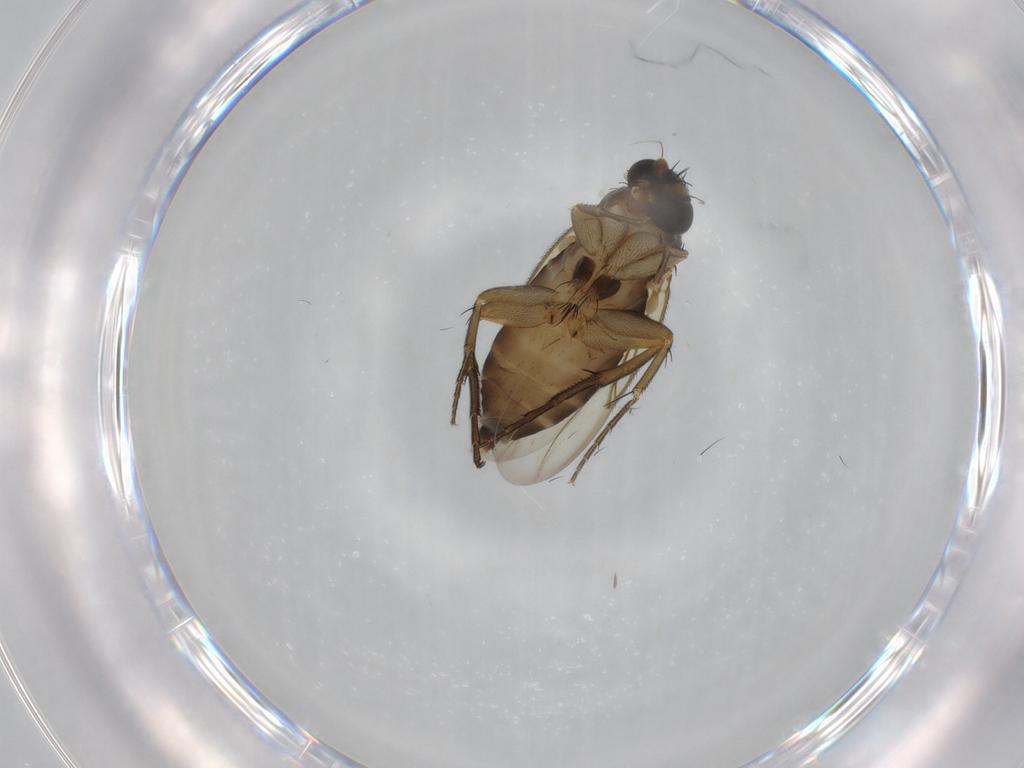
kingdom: Animalia
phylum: Arthropoda
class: Insecta
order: Diptera
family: Phoridae
